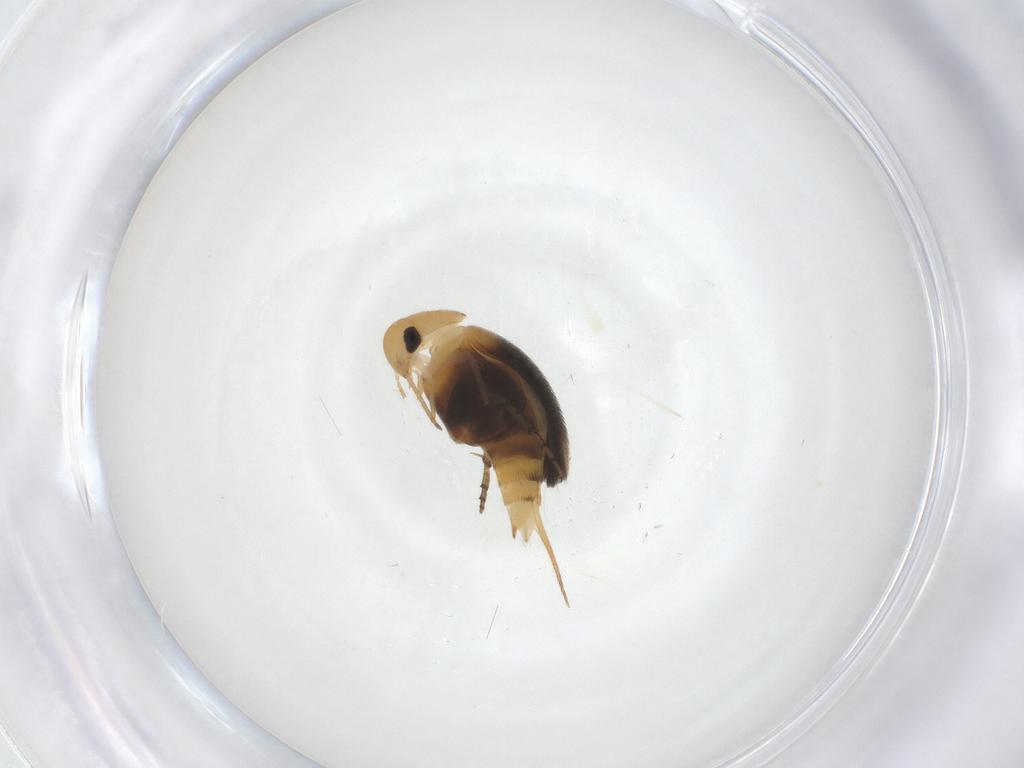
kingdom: Animalia
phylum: Arthropoda
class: Insecta
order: Coleoptera
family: Mordellidae
